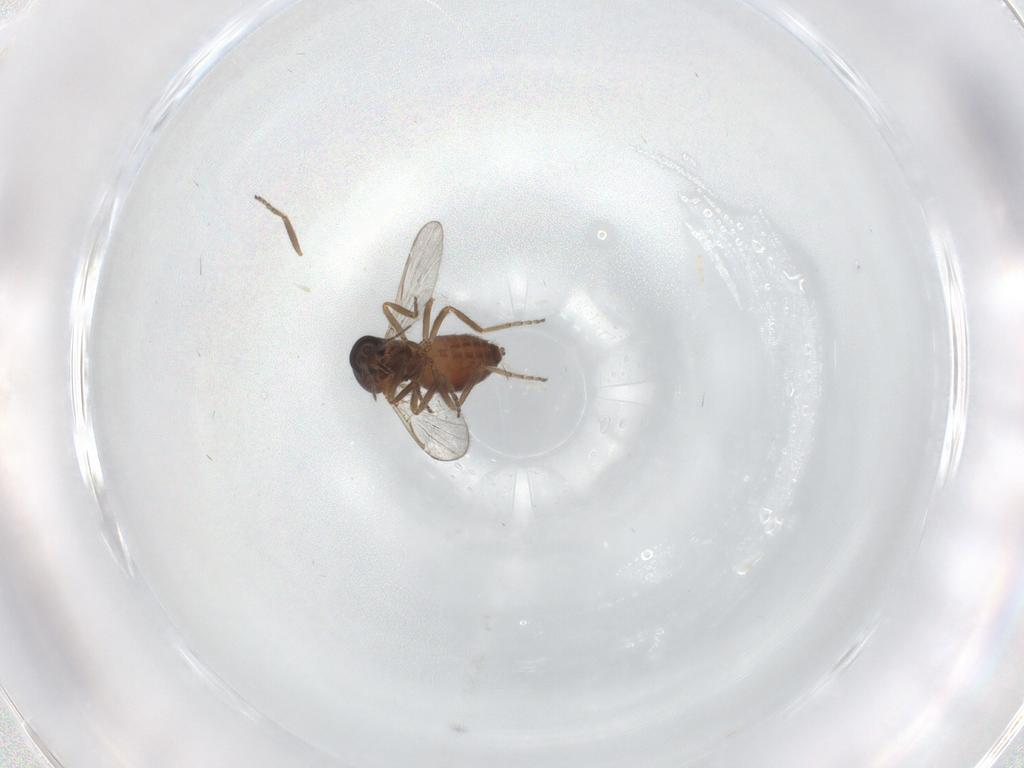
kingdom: Animalia
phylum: Arthropoda
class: Insecta
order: Diptera
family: Ceratopogonidae
